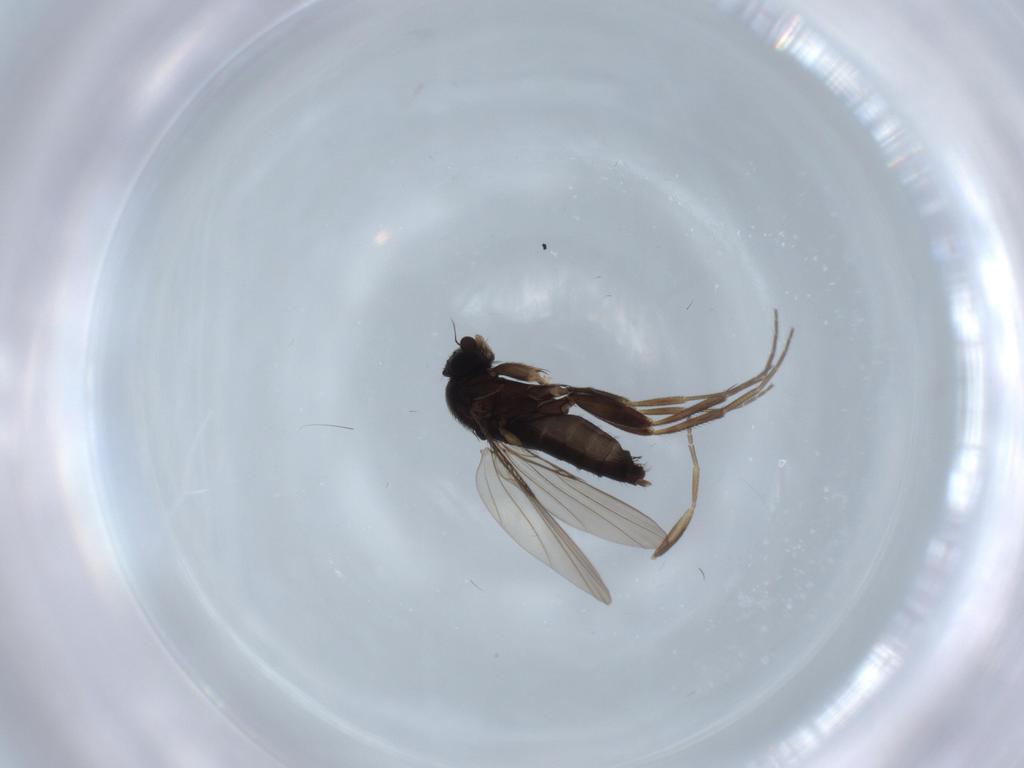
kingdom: Animalia
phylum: Arthropoda
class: Insecta
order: Diptera
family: Phoridae
